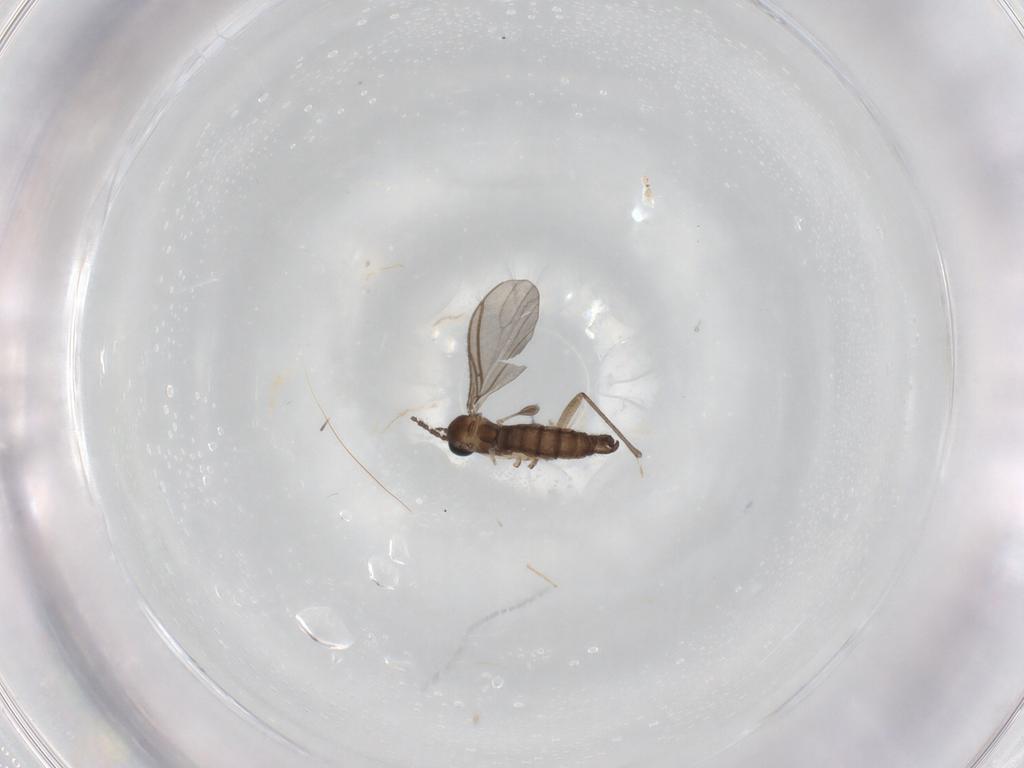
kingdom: Animalia
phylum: Arthropoda
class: Insecta
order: Diptera
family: Sciaridae
